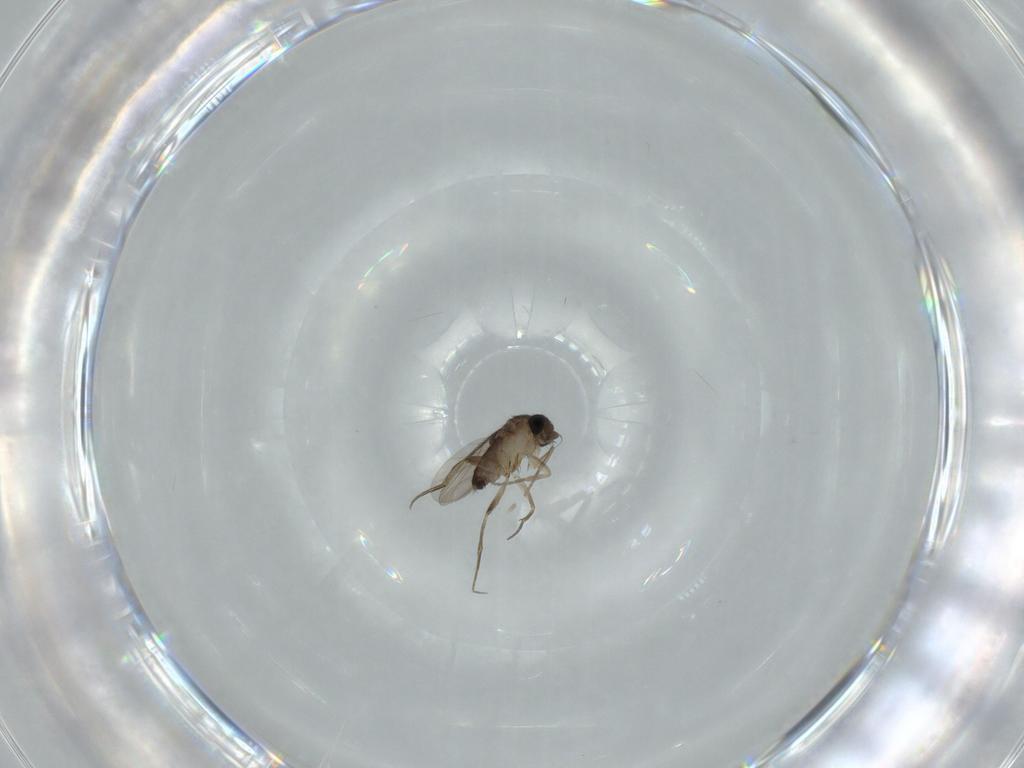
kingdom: Animalia
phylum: Arthropoda
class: Insecta
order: Diptera
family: Phoridae
